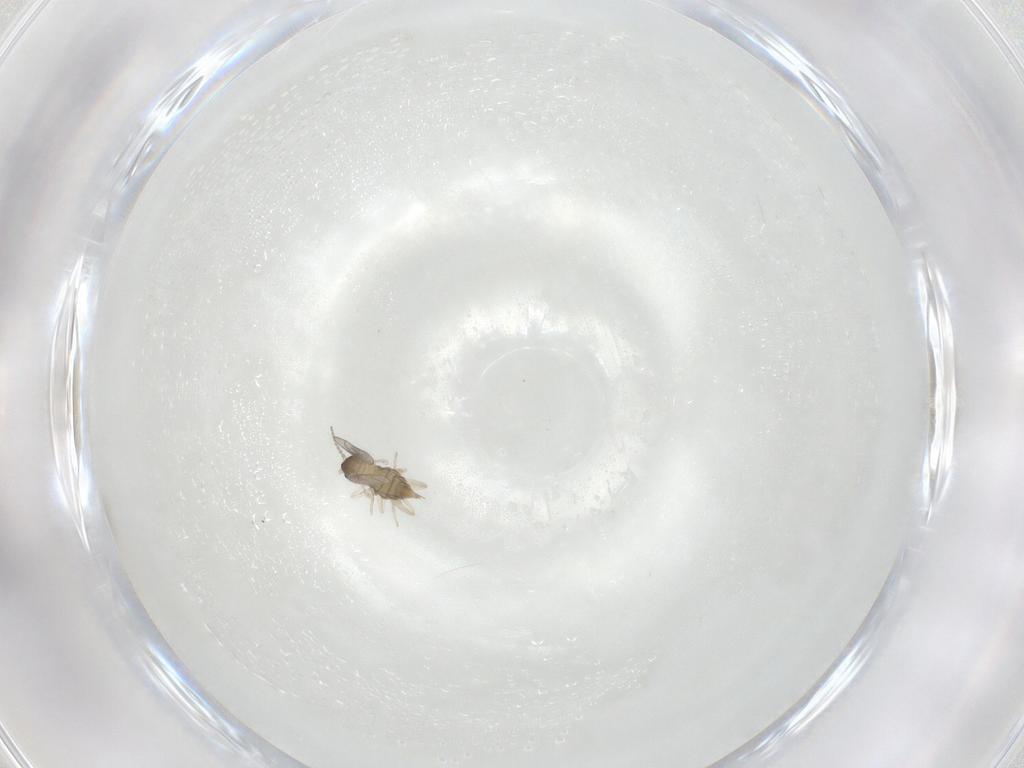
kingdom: Animalia
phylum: Arthropoda
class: Insecta
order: Diptera
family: Cecidomyiidae
